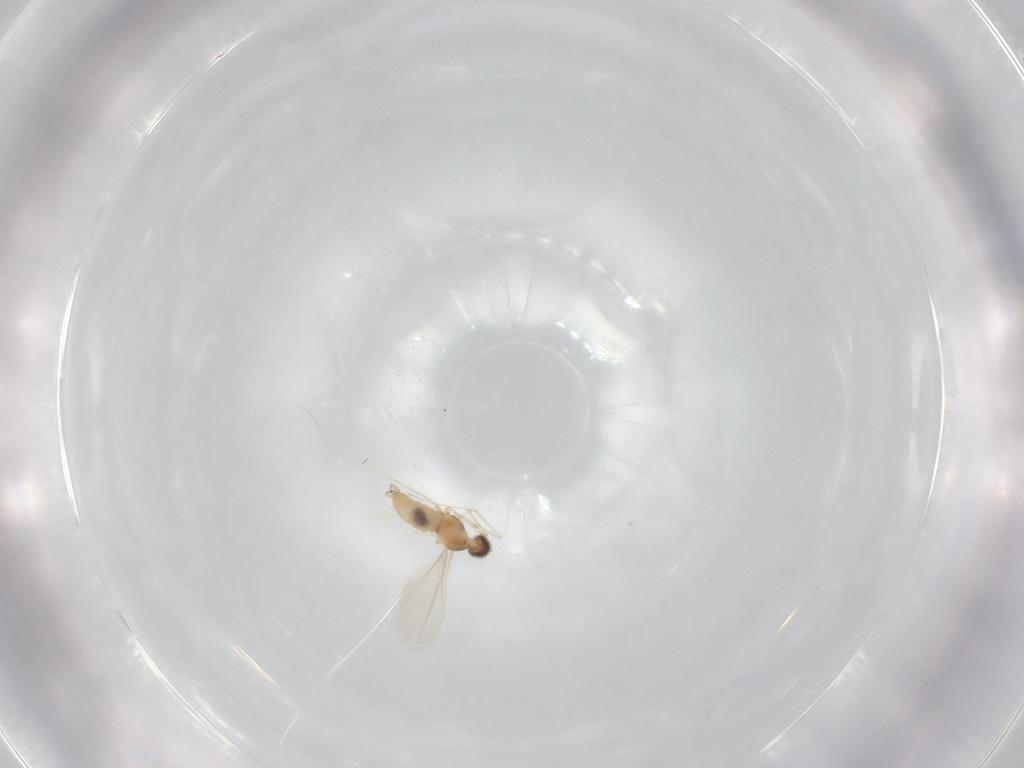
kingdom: Animalia
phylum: Arthropoda
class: Insecta
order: Diptera
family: Cecidomyiidae
